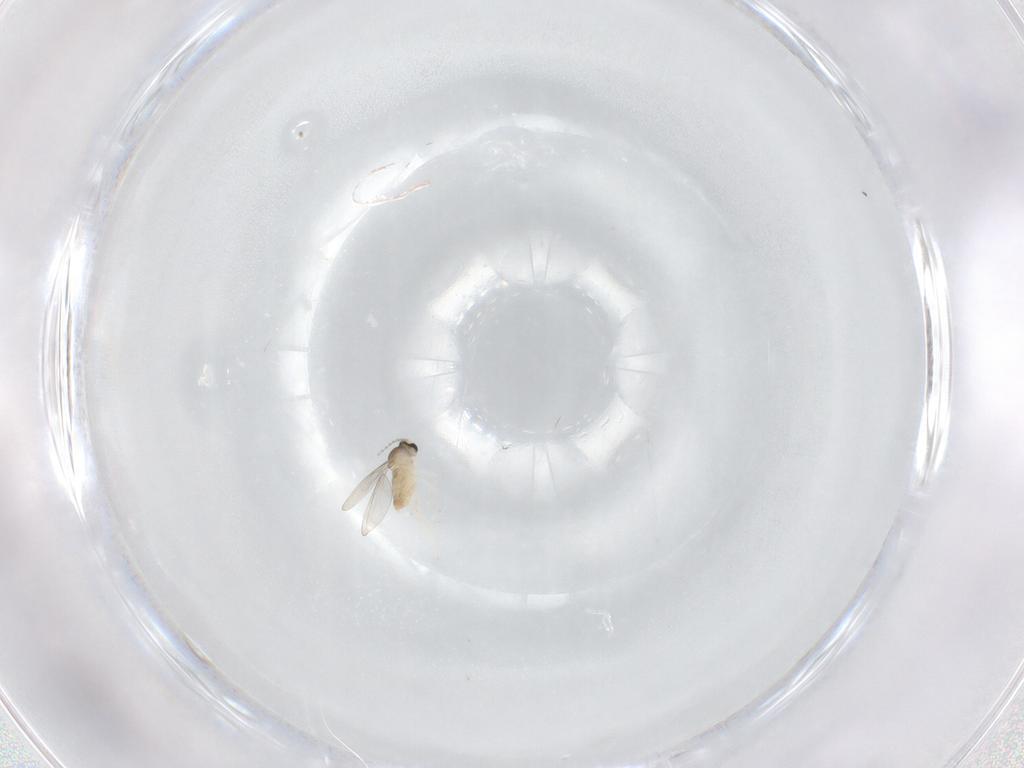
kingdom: Animalia
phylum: Arthropoda
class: Insecta
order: Diptera
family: Cecidomyiidae
